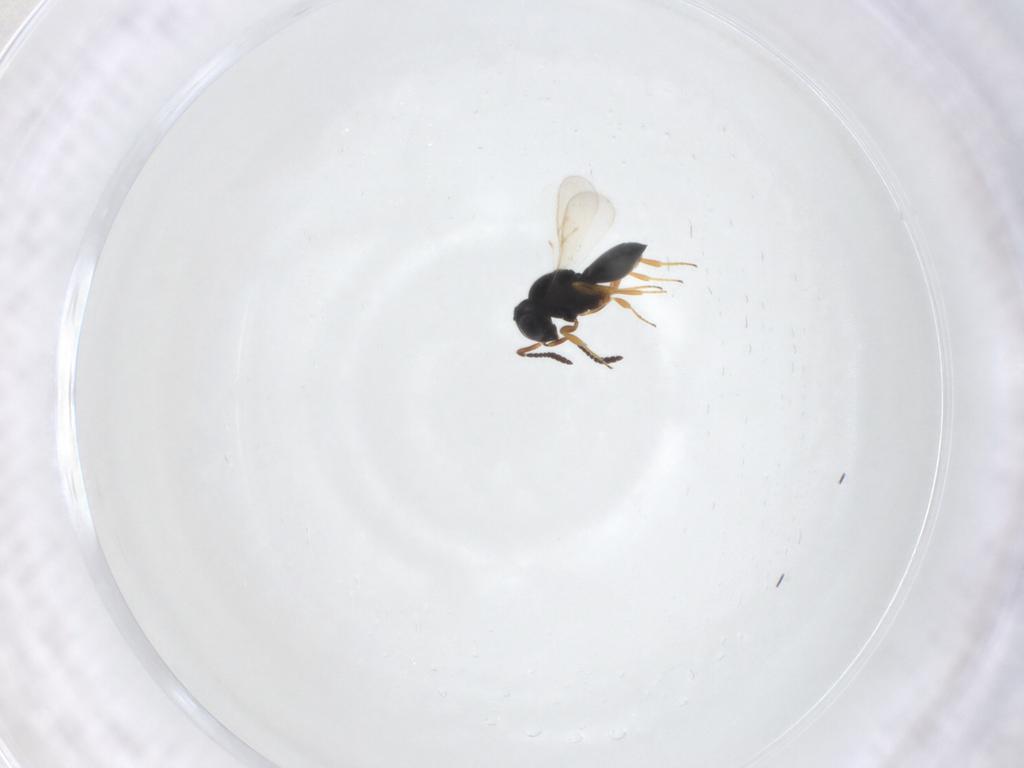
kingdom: Animalia
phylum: Arthropoda
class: Insecta
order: Hymenoptera
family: Scelionidae
